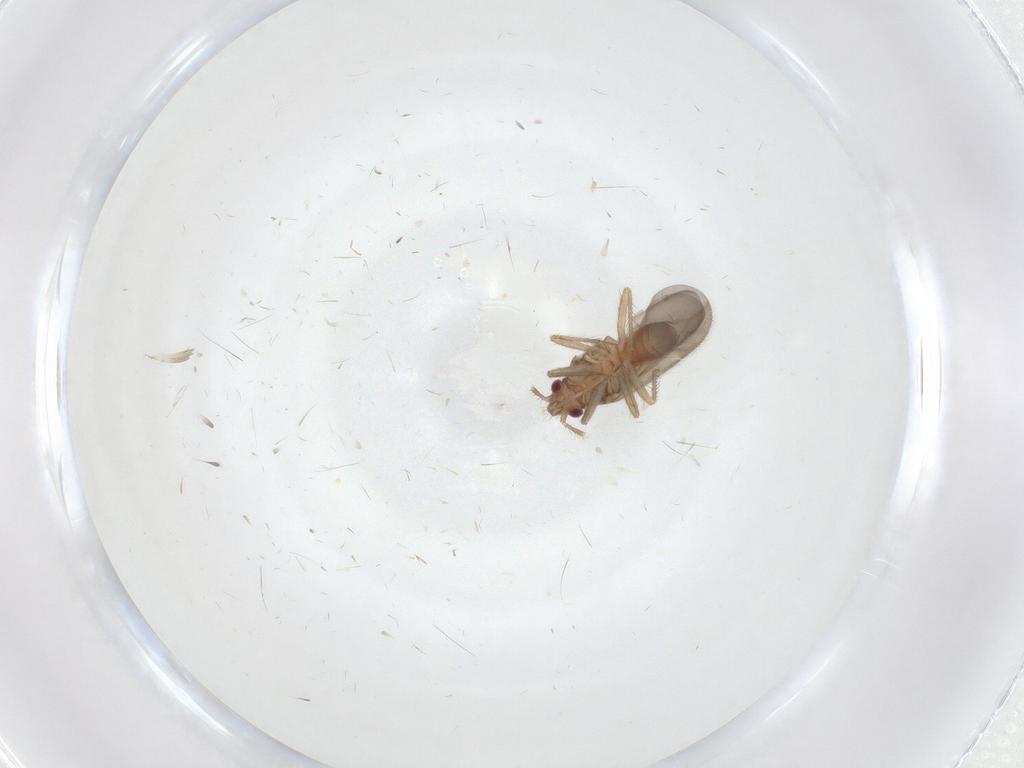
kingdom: Animalia
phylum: Arthropoda
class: Insecta
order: Hemiptera
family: Ceratocombidae
